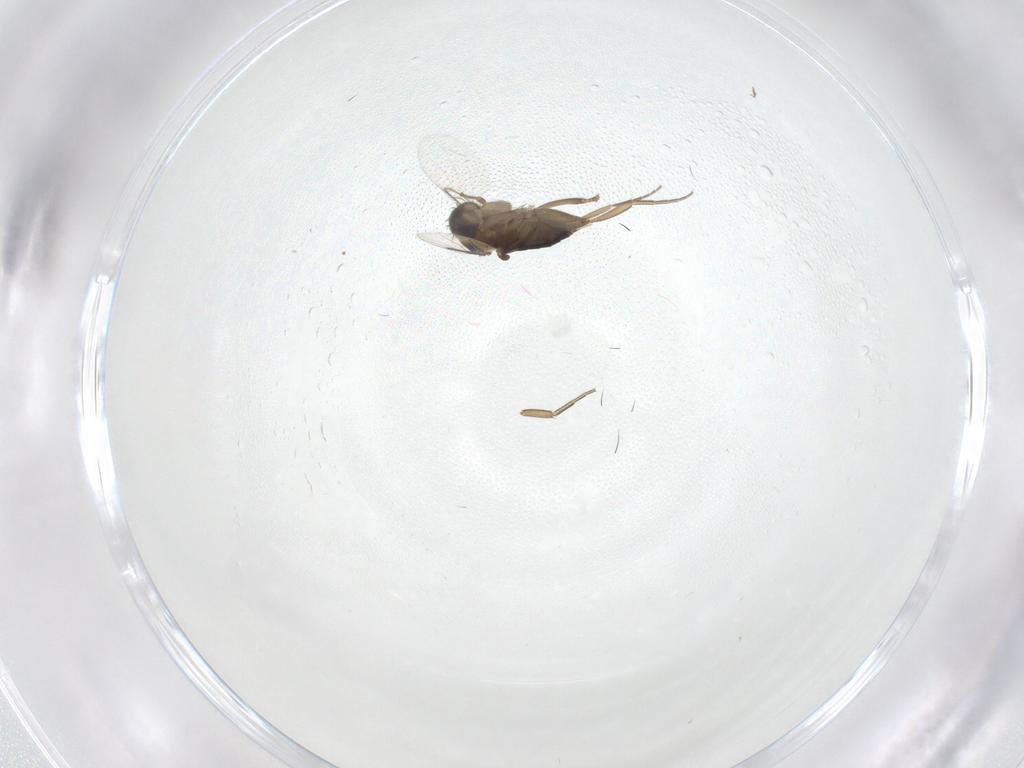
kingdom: Animalia
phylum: Arthropoda
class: Insecta
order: Diptera
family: Phoridae
